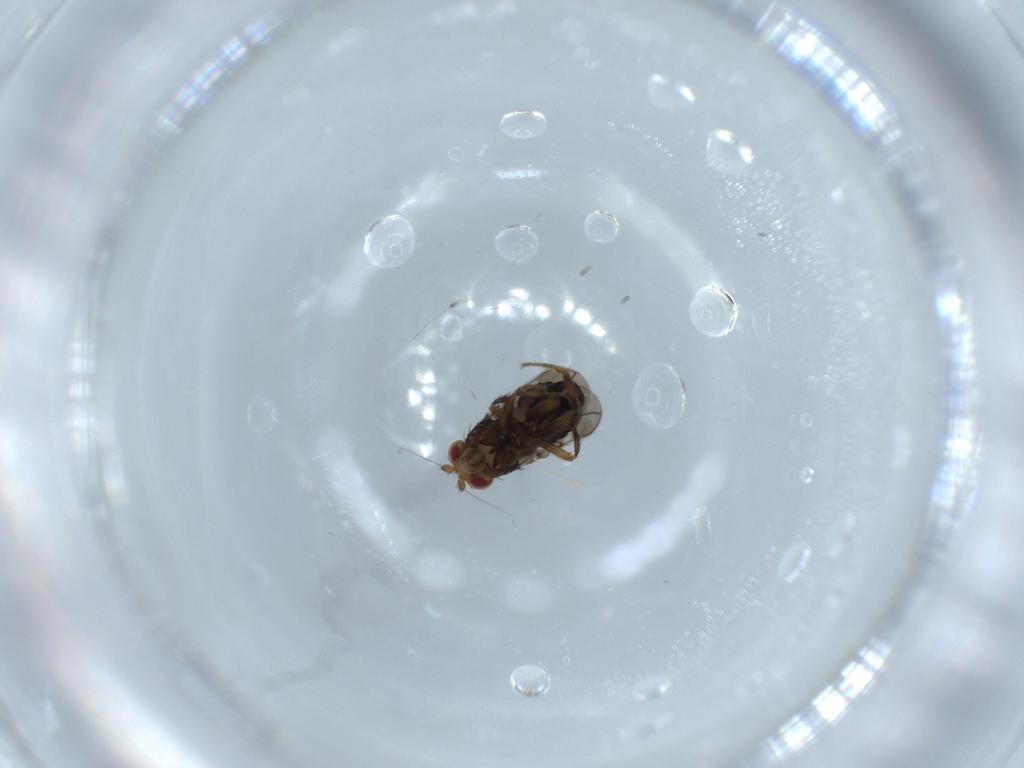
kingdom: Animalia
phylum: Arthropoda
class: Insecta
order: Diptera
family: Sphaeroceridae
